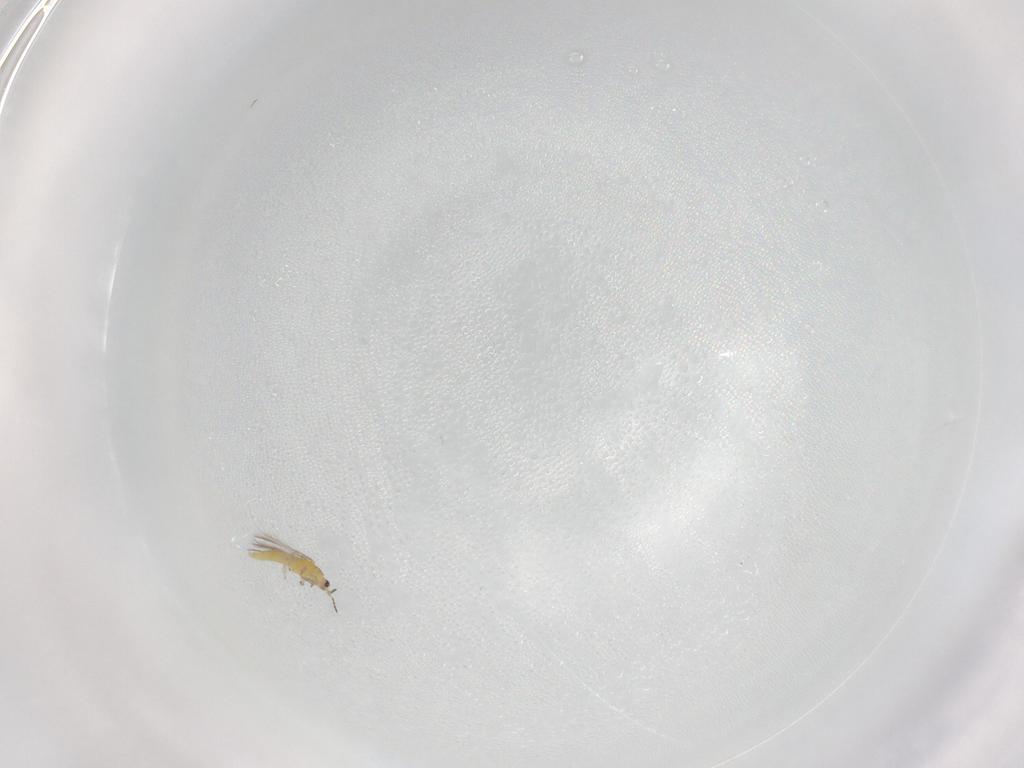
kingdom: Animalia
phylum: Arthropoda
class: Insecta
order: Thysanoptera
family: Thripidae
